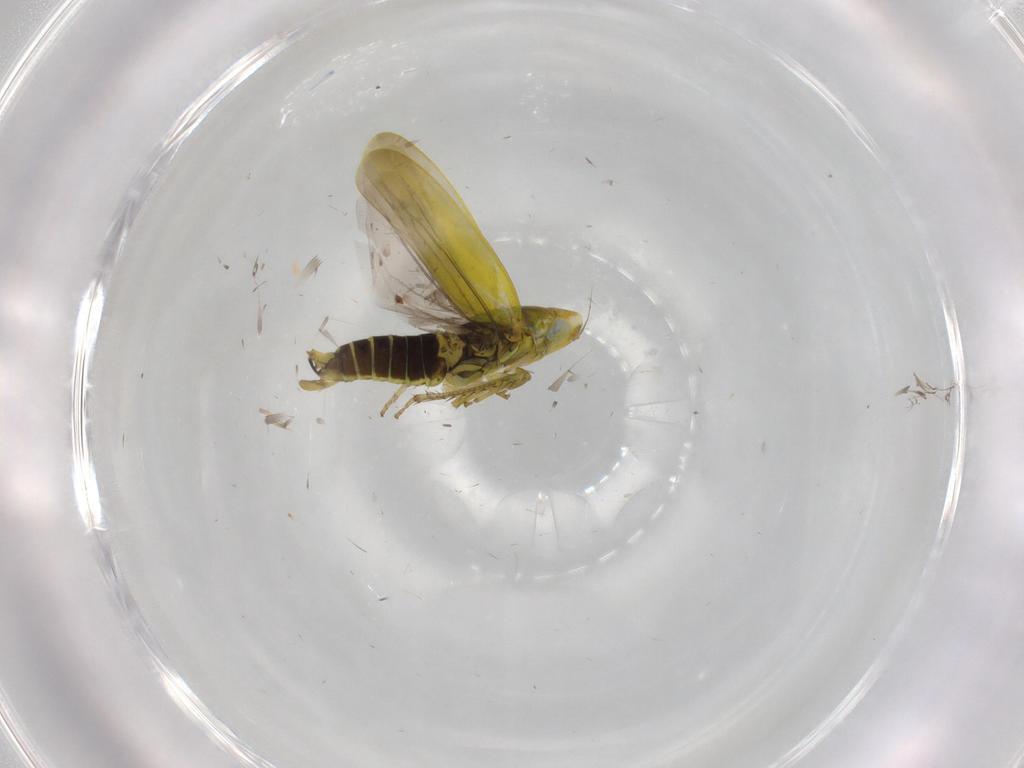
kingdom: Animalia
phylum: Arthropoda
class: Insecta
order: Hemiptera
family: Cicadellidae
